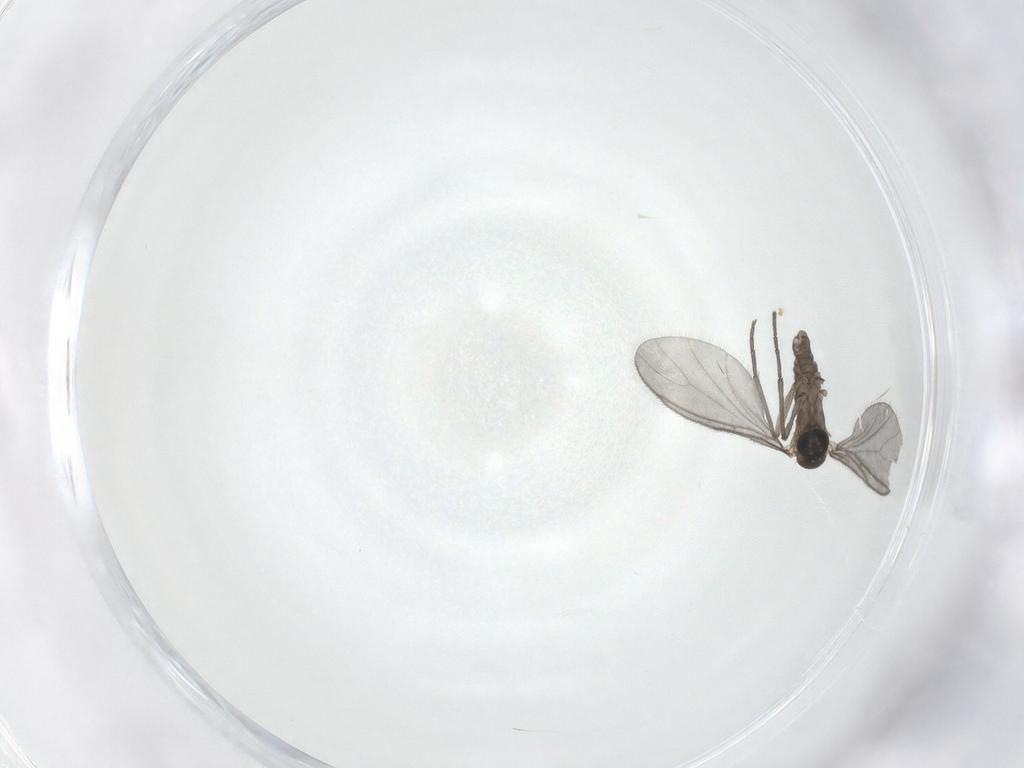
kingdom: Animalia
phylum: Arthropoda
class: Insecta
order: Diptera
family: Sciaridae
